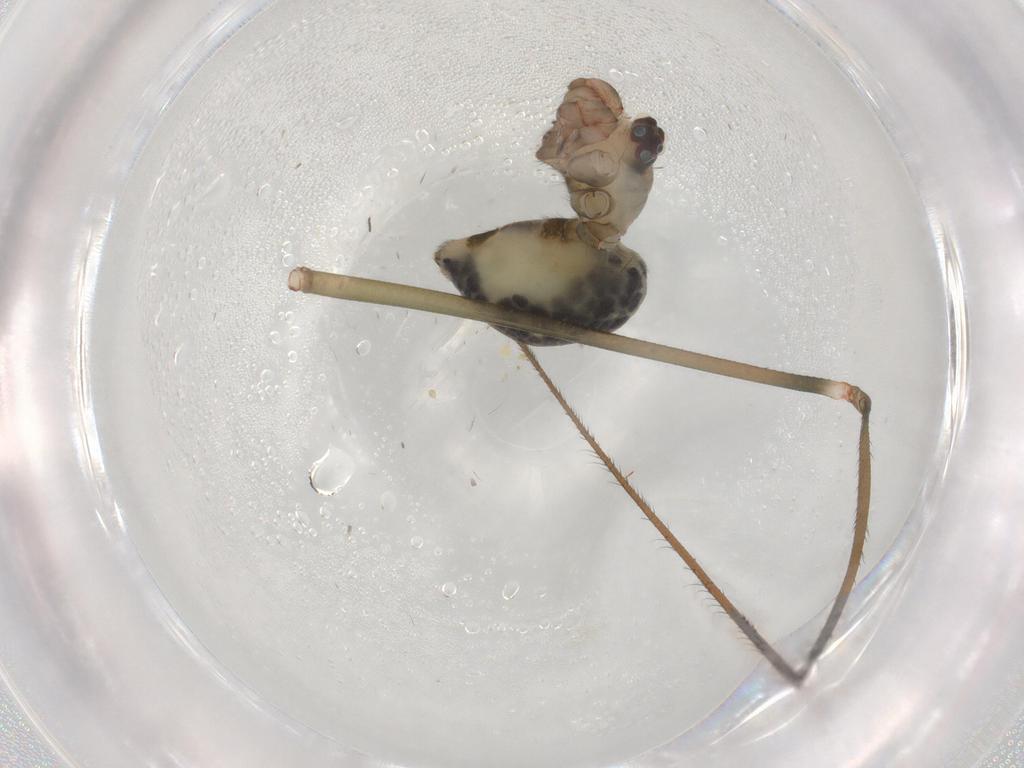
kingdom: Animalia
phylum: Arthropoda
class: Arachnida
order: Araneae
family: Pholcidae
